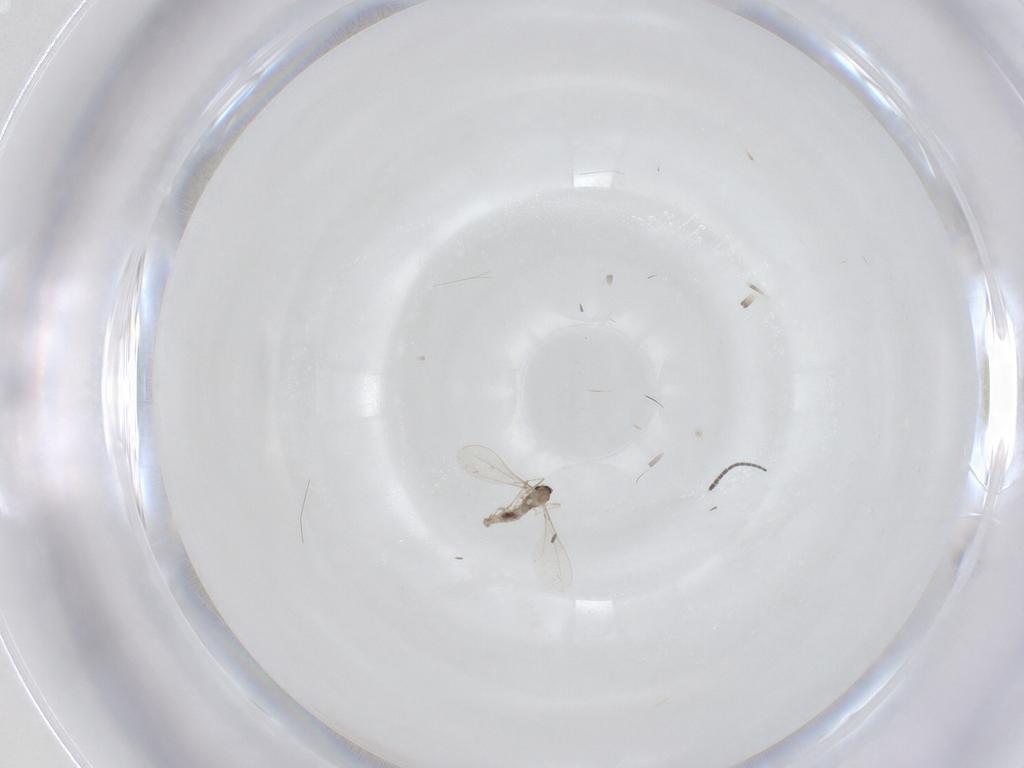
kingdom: Animalia
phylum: Arthropoda
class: Insecta
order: Diptera
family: Cecidomyiidae
